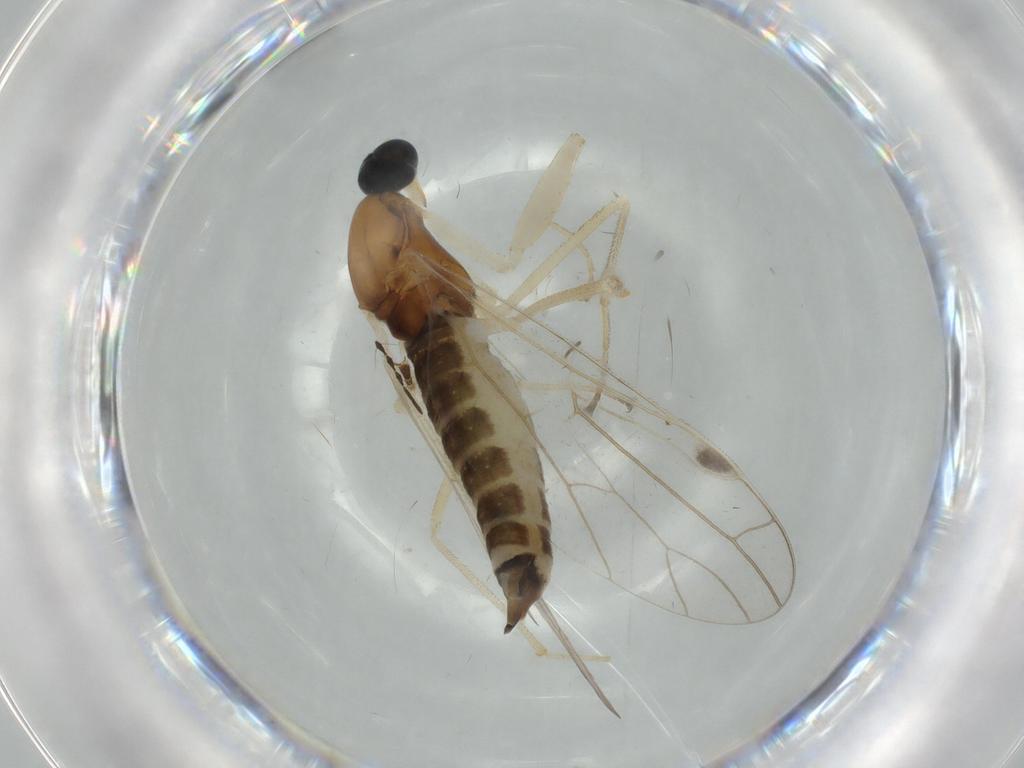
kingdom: Animalia
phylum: Arthropoda
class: Insecta
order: Diptera
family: Empididae
